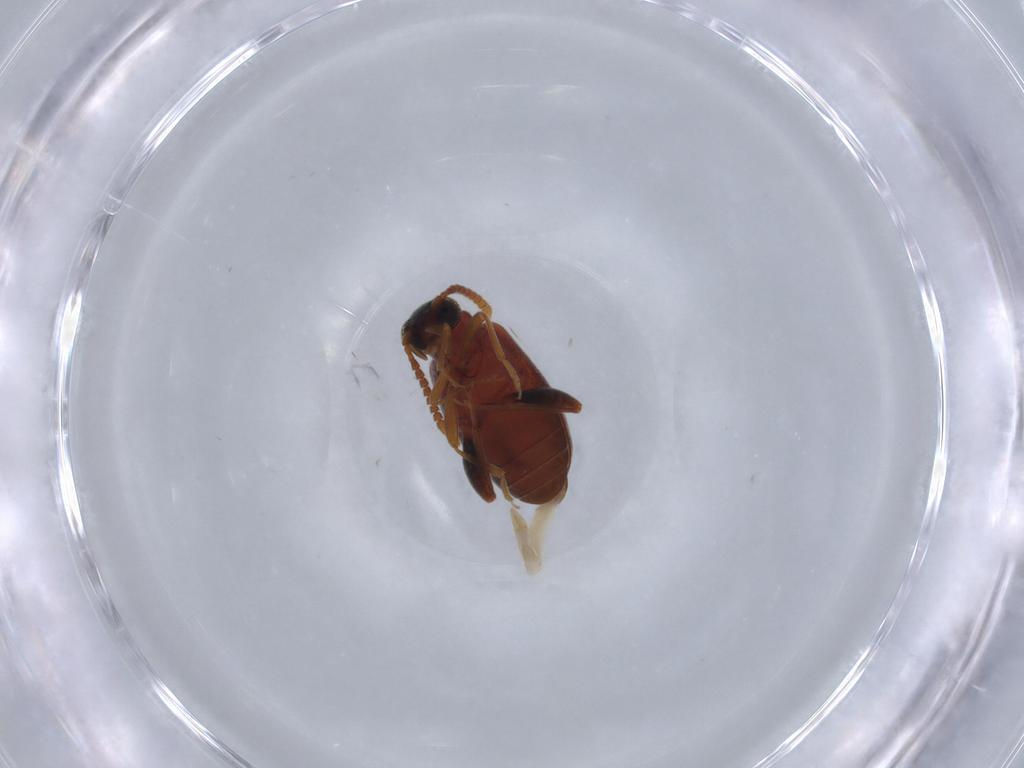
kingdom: Animalia
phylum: Arthropoda
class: Insecta
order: Coleoptera
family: Aderidae
